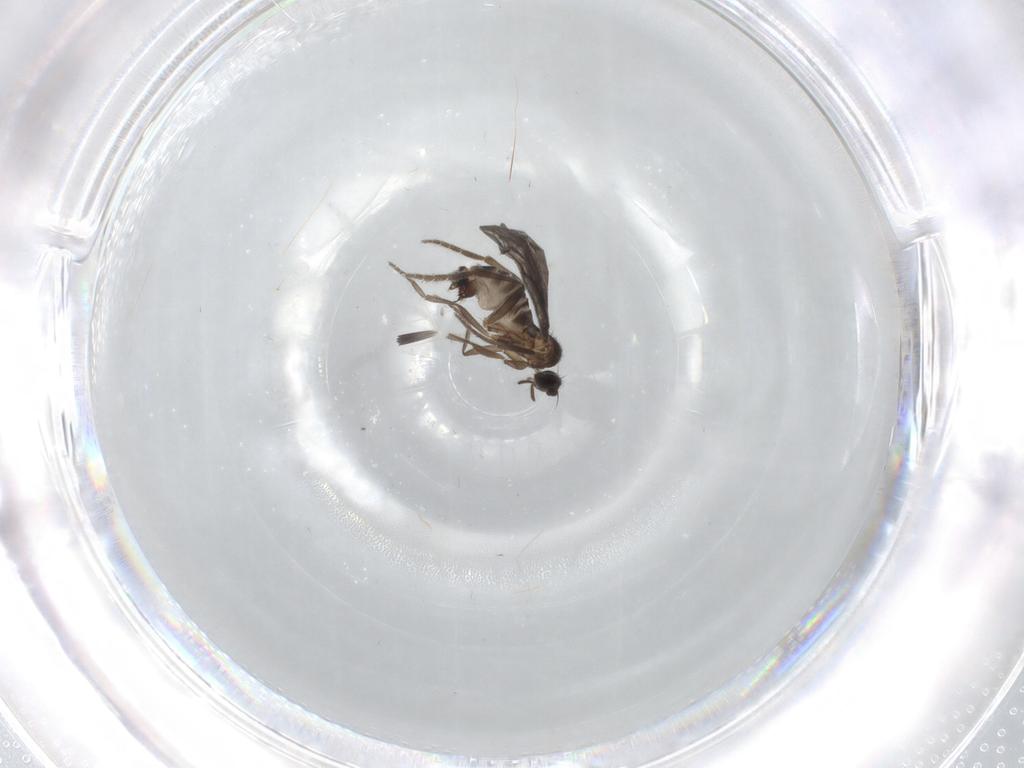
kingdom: Animalia
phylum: Arthropoda
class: Insecta
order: Diptera
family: Phoridae
